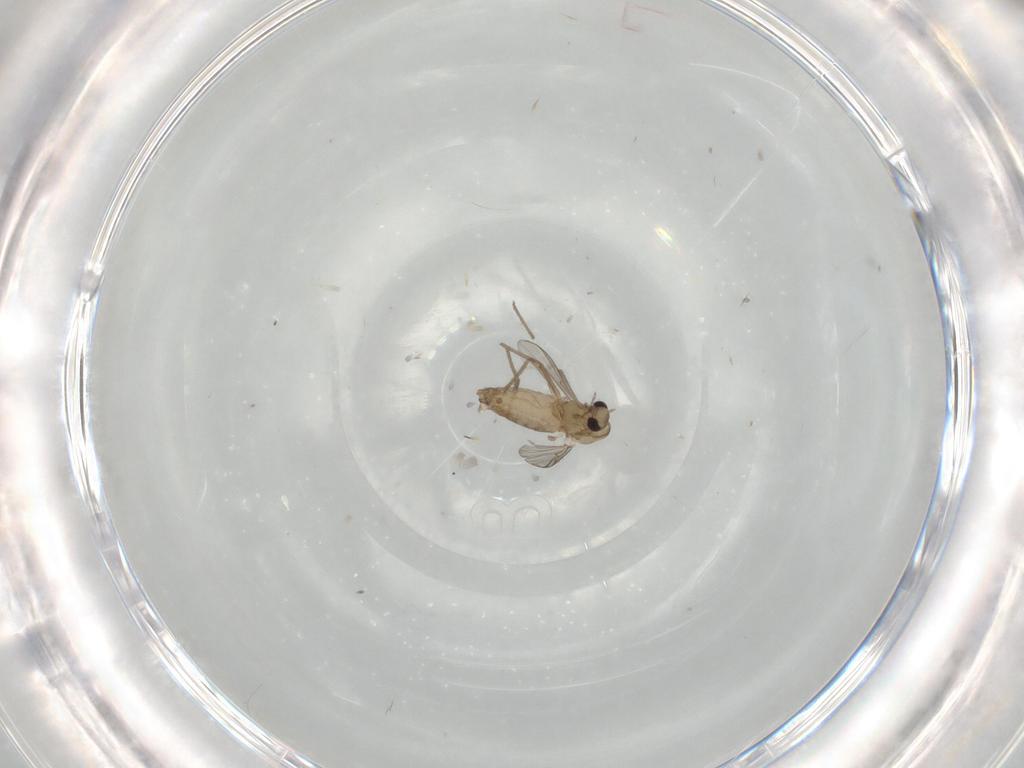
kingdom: Animalia
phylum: Arthropoda
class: Insecta
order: Diptera
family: Chironomidae
